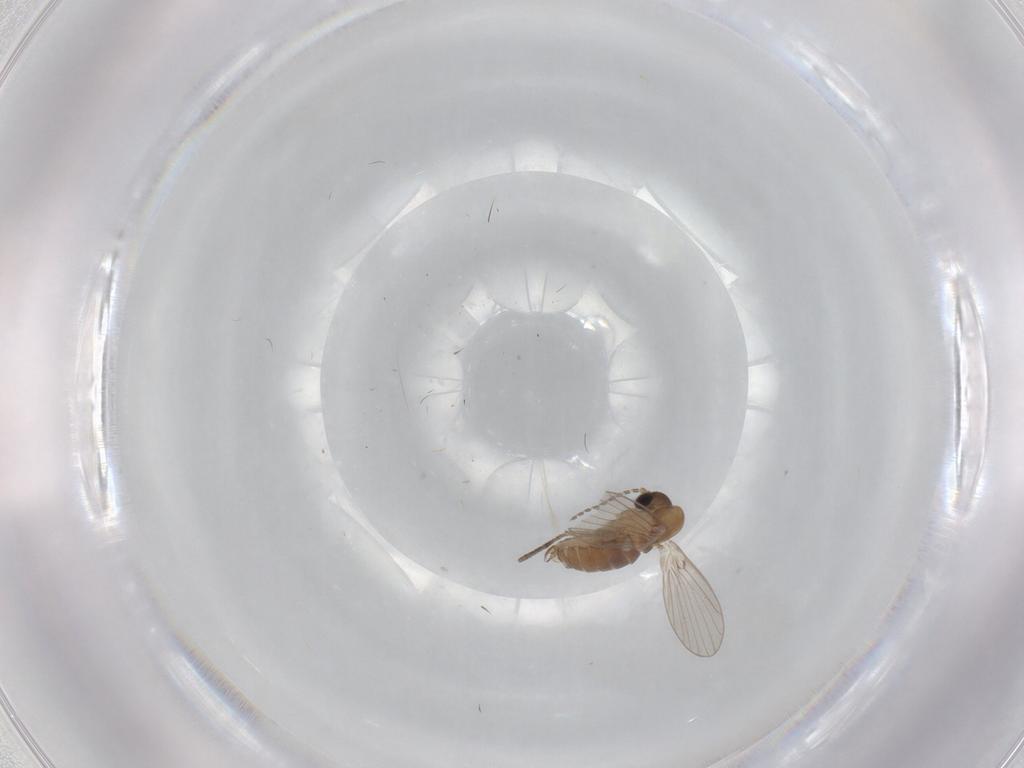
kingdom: Animalia
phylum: Arthropoda
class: Insecta
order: Diptera
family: Psychodidae
